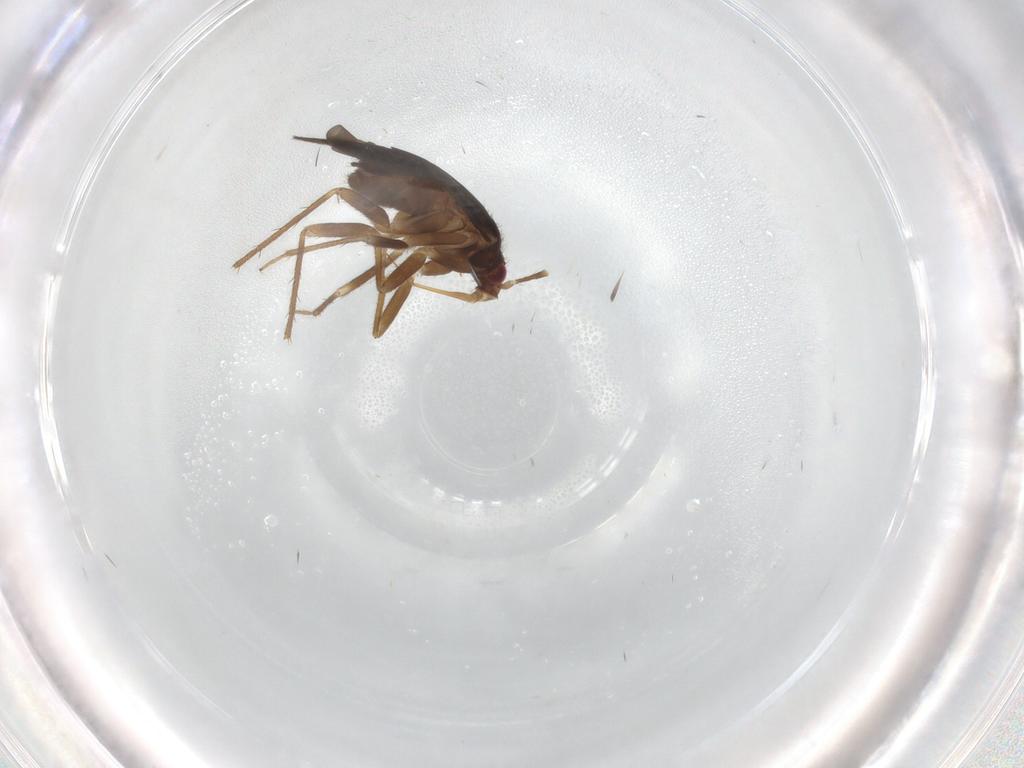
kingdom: Animalia
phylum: Arthropoda
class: Insecta
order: Hemiptera
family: Ceratocombidae
